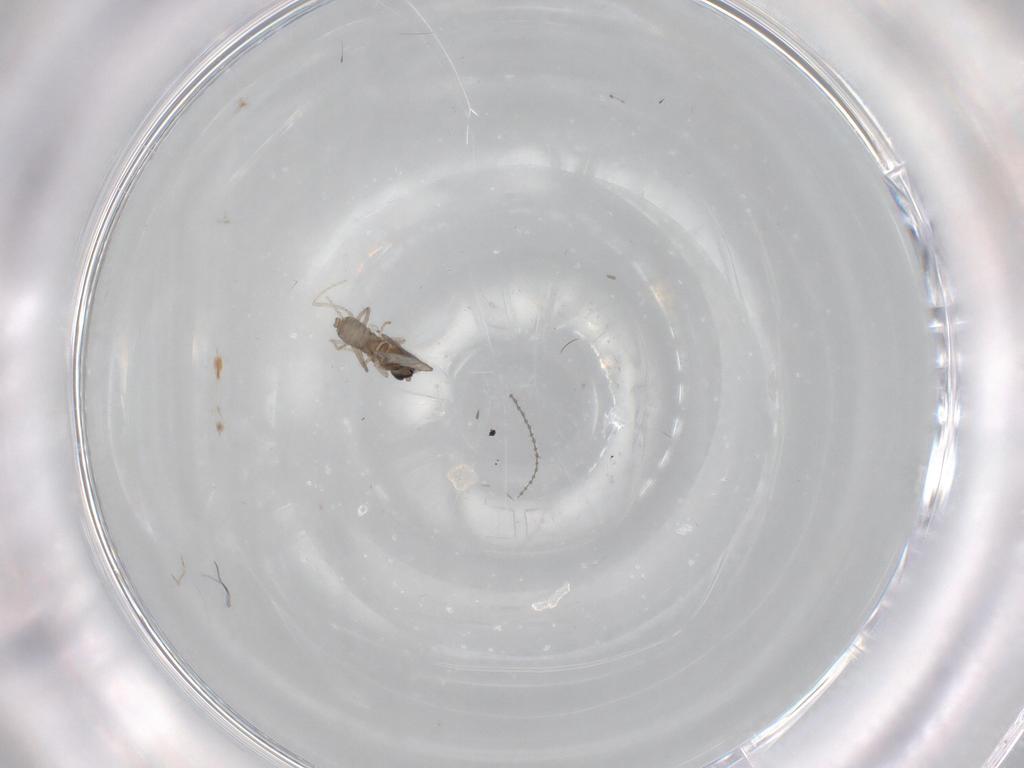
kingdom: Animalia
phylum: Arthropoda
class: Insecta
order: Diptera
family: Cecidomyiidae
